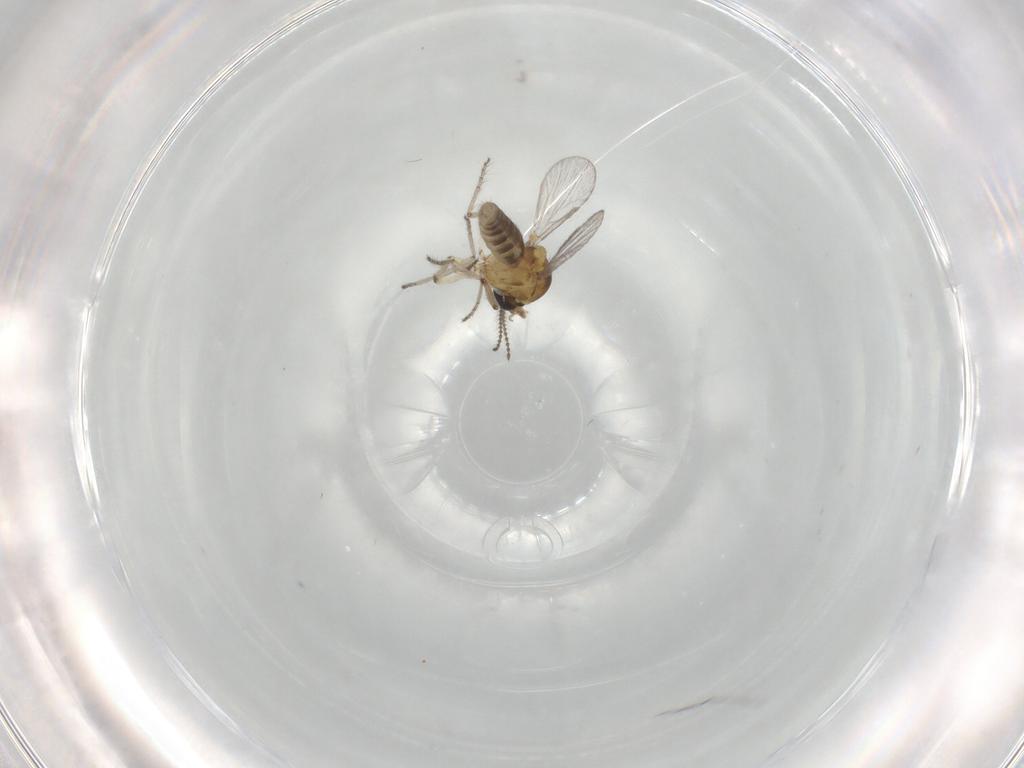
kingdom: Animalia
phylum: Arthropoda
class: Insecta
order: Diptera
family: Ceratopogonidae
